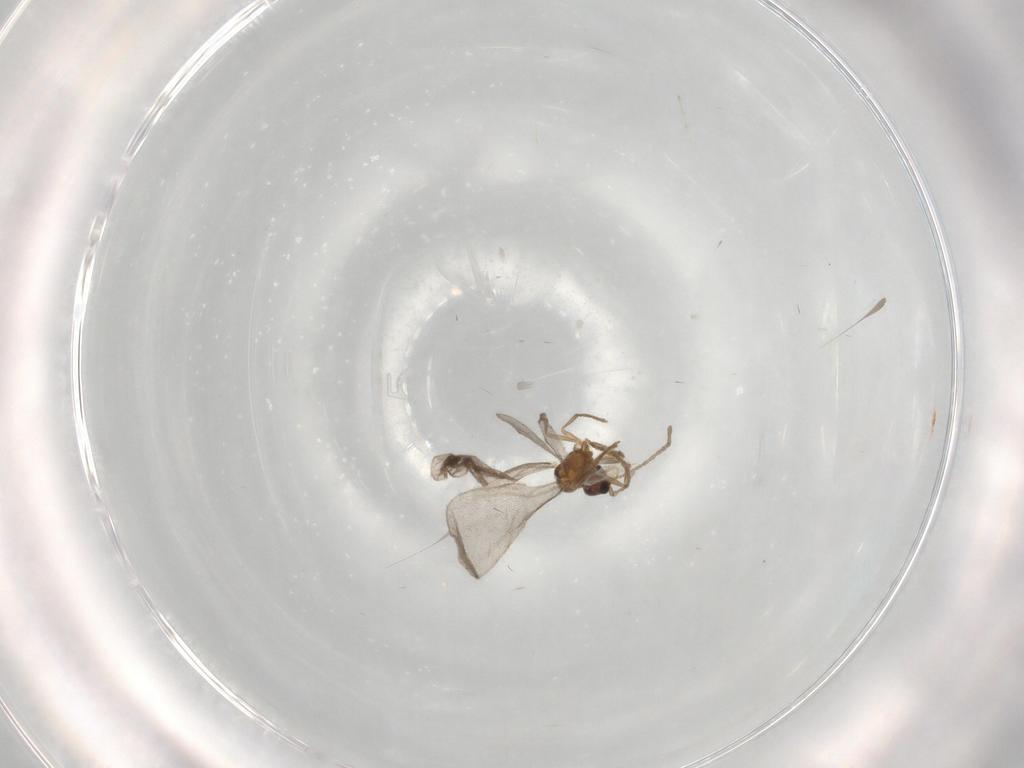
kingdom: Animalia
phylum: Arthropoda
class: Insecta
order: Hymenoptera
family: Formicidae
